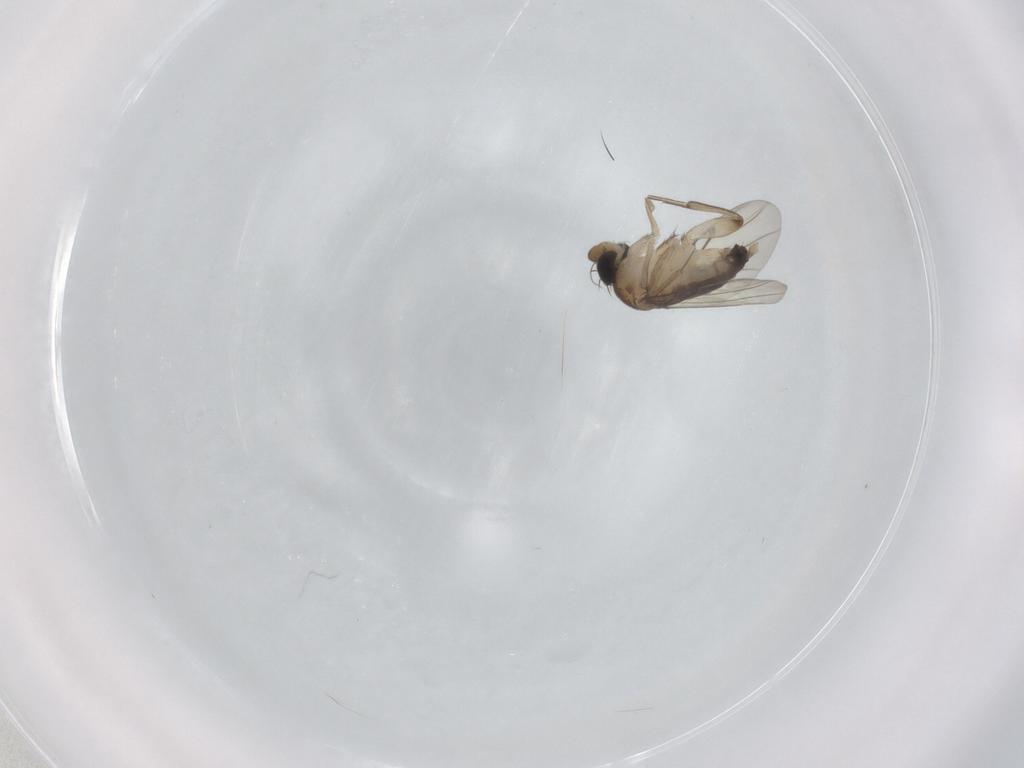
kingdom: Animalia
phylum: Arthropoda
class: Insecta
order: Diptera
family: Phoridae
